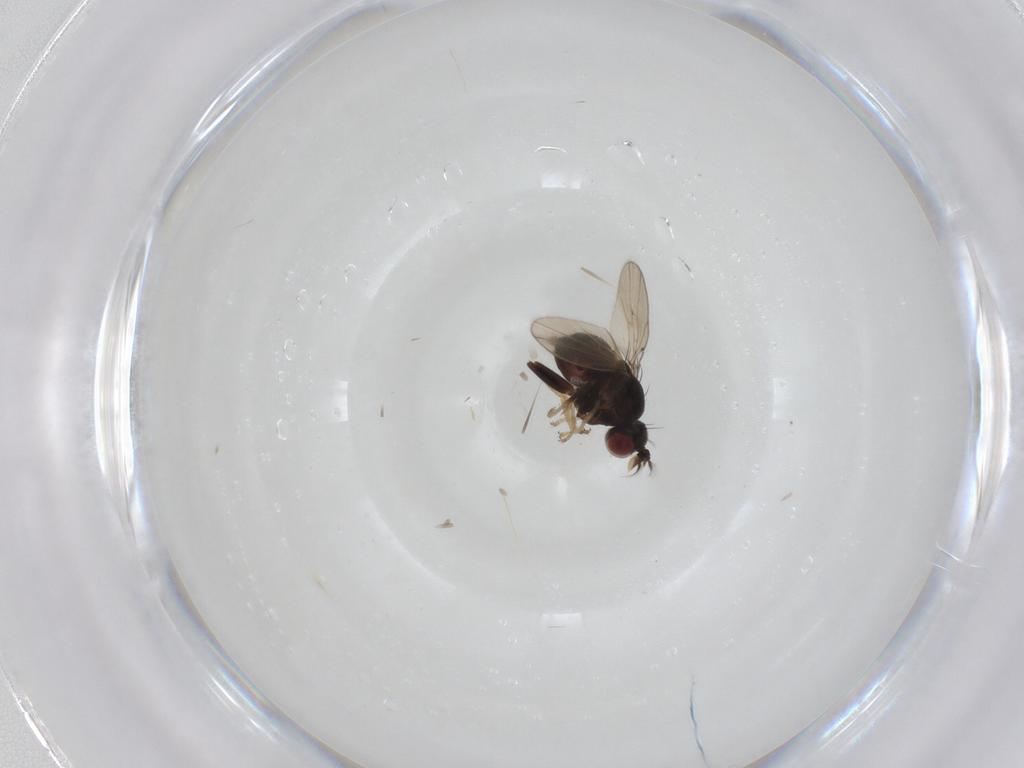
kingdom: Animalia
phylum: Arthropoda
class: Insecta
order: Diptera
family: Ephydridae
